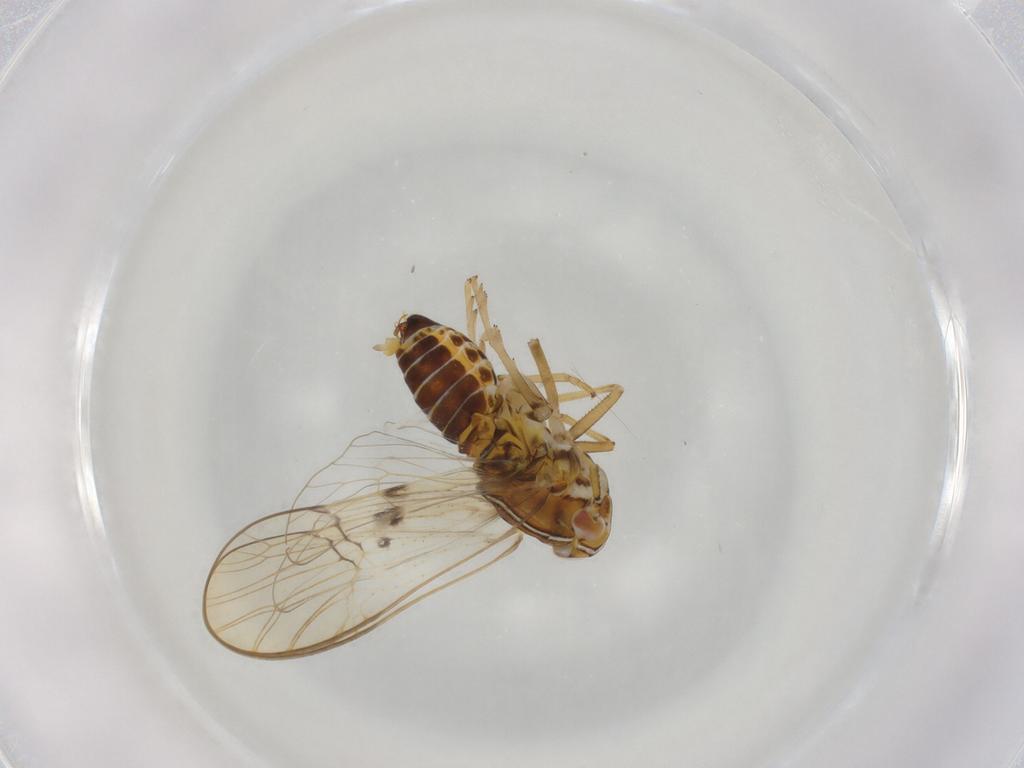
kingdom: Animalia
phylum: Arthropoda
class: Insecta
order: Hemiptera
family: Delphacidae
